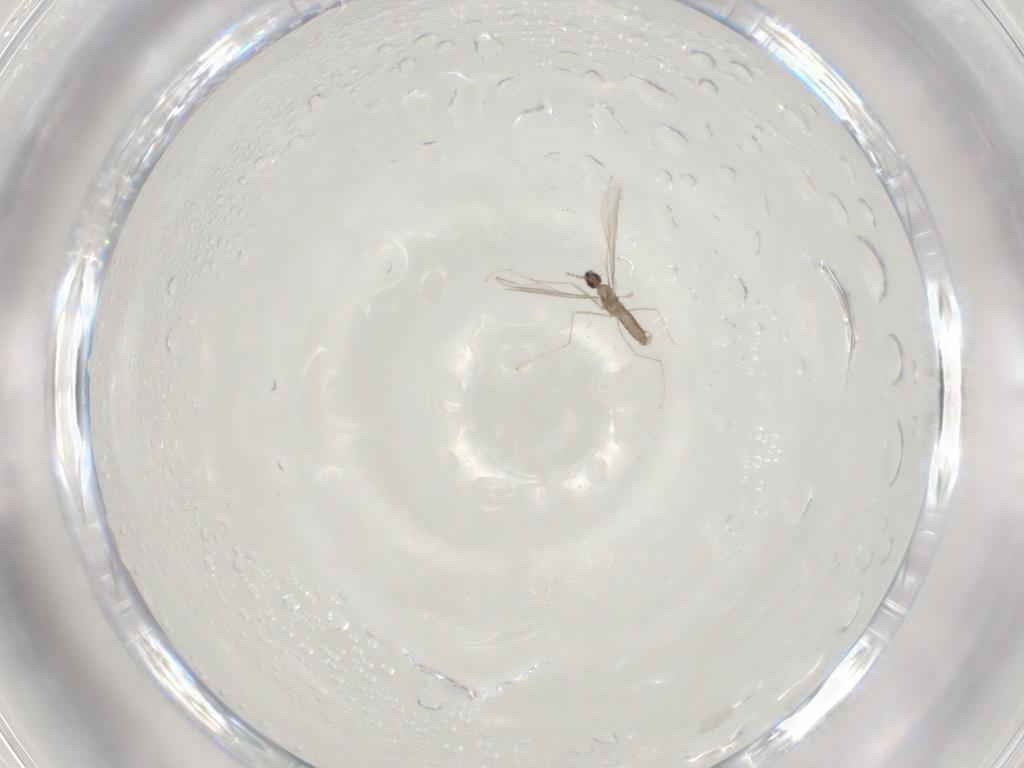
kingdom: Animalia
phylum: Arthropoda
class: Insecta
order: Diptera
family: Cecidomyiidae
